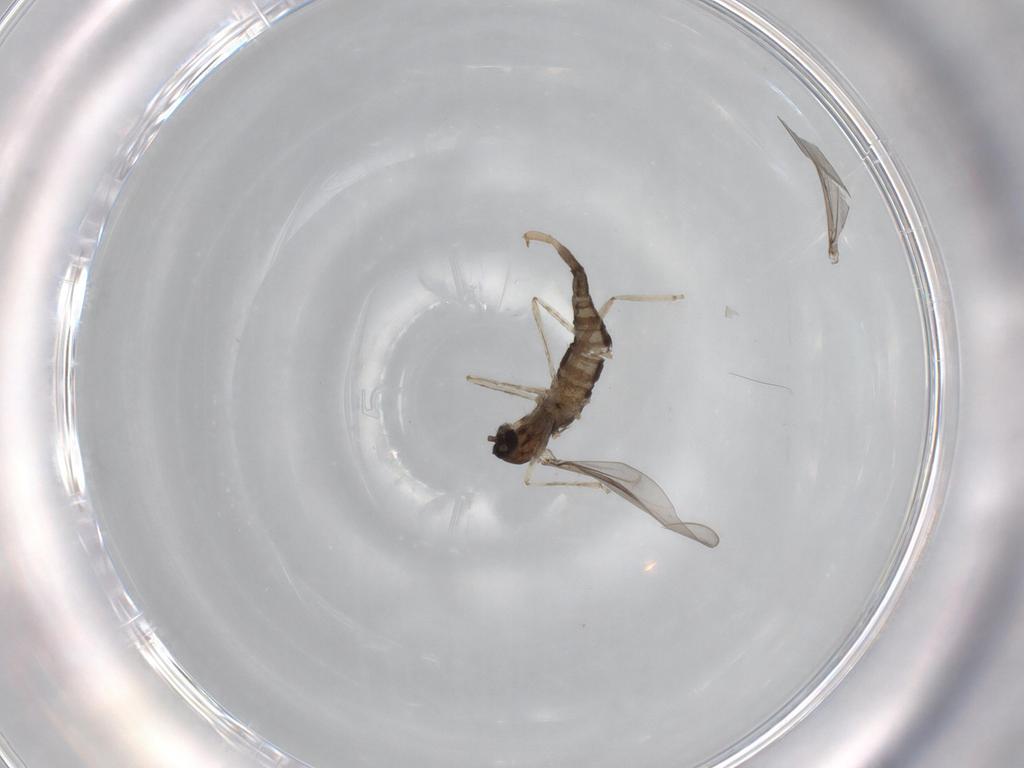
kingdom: Animalia
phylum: Arthropoda
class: Insecta
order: Diptera
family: Cecidomyiidae
